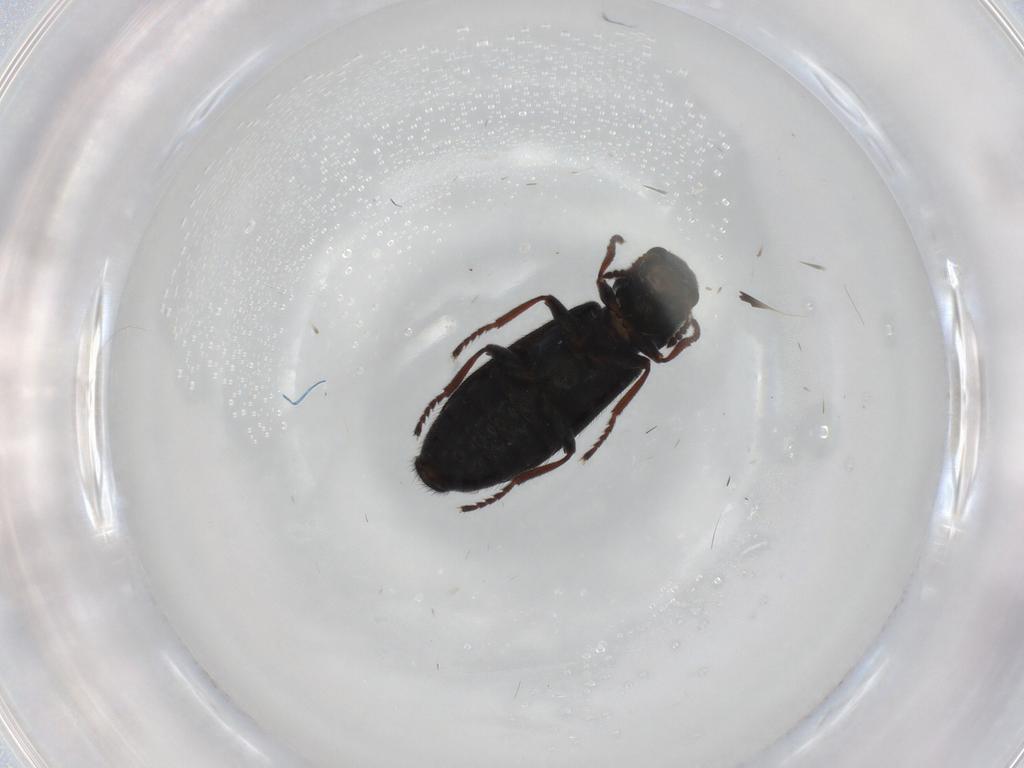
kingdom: Animalia
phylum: Arthropoda
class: Insecta
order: Coleoptera
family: Melyridae
